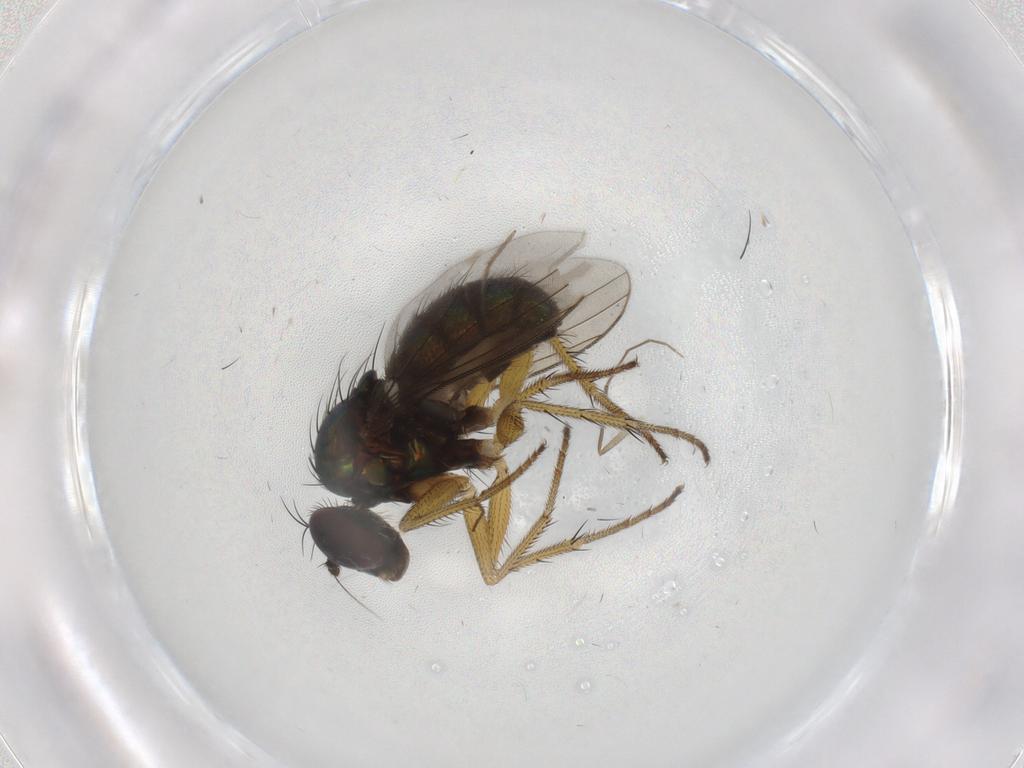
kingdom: Animalia
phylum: Arthropoda
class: Insecta
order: Diptera
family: Dolichopodidae
